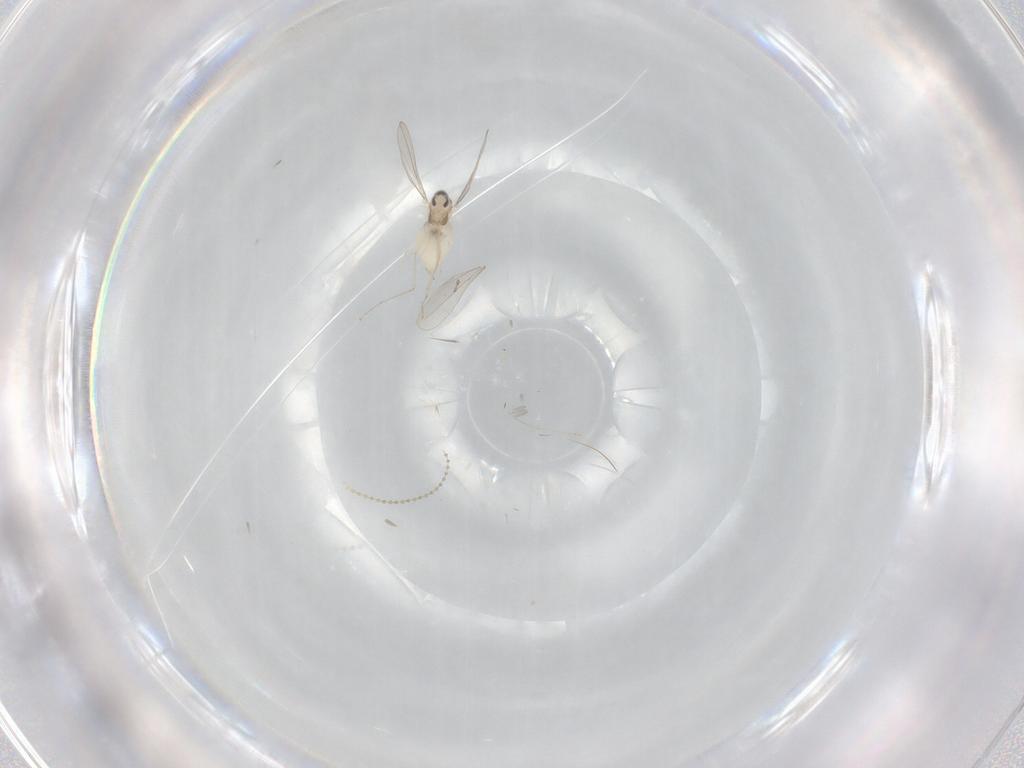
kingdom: Animalia
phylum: Arthropoda
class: Insecta
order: Diptera
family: Cecidomyiidae
